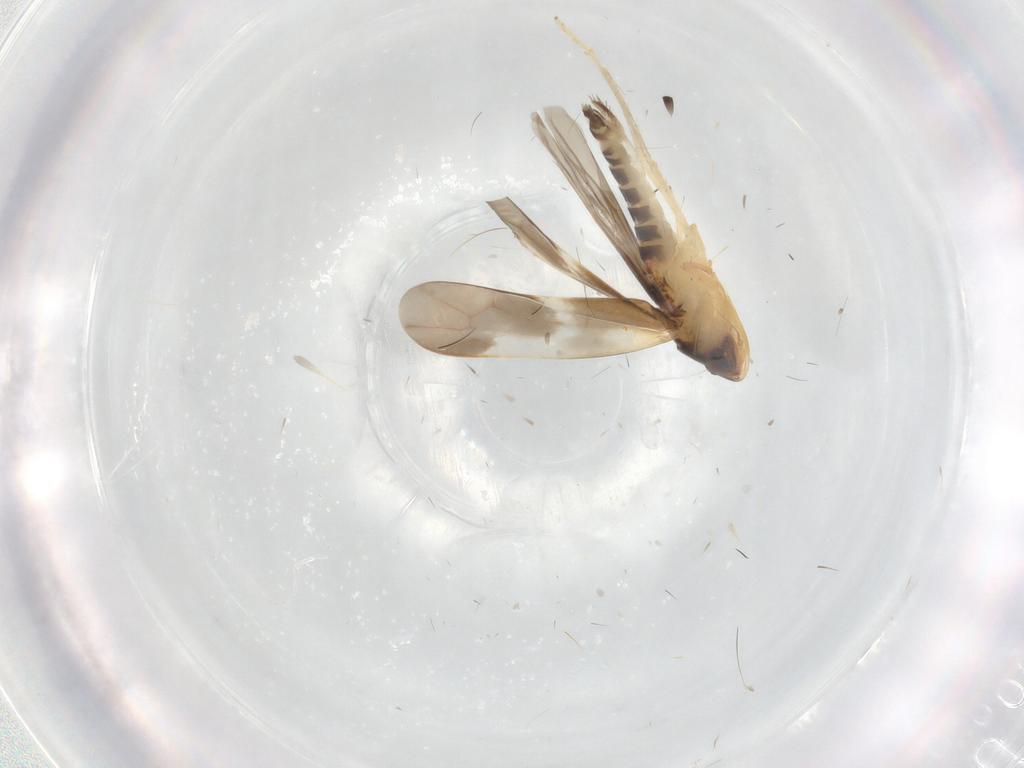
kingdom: Animalia
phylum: Arthropoda
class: Insecta
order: Hemiptera
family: Cicadellidae
